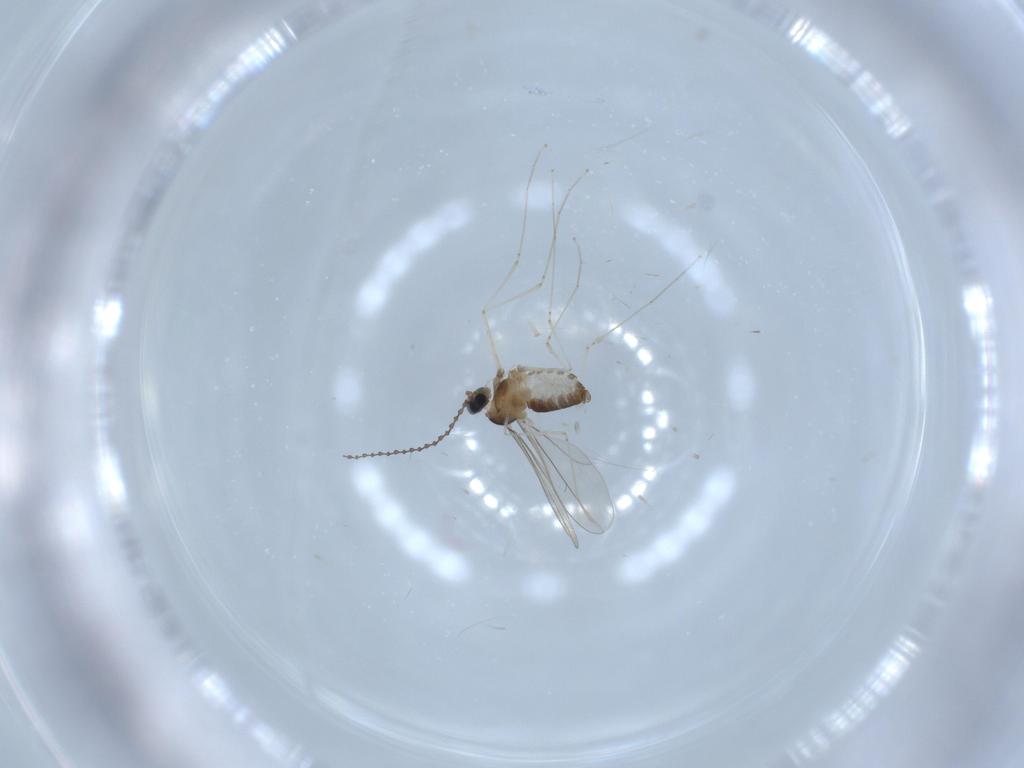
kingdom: Animalia
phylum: Arthropoda
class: Insecta
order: Diptera
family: Cecidomyiidae
